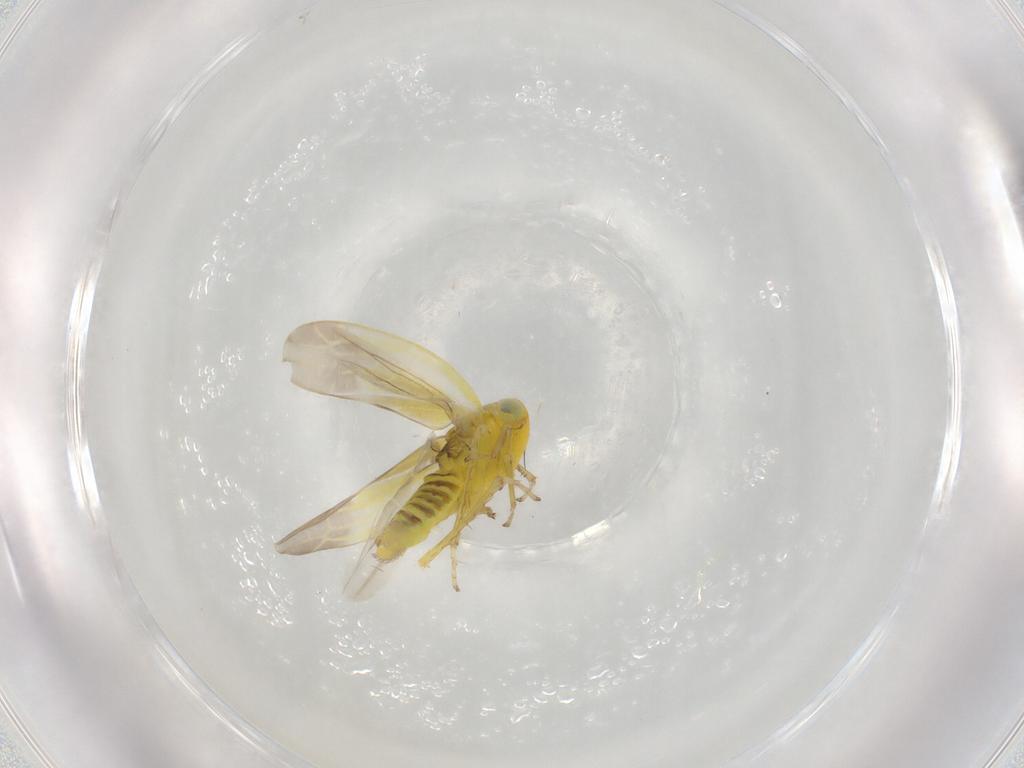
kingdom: Animalia
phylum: Arthropoda
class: Insecta
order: Hemiptera
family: Cicadellidae
